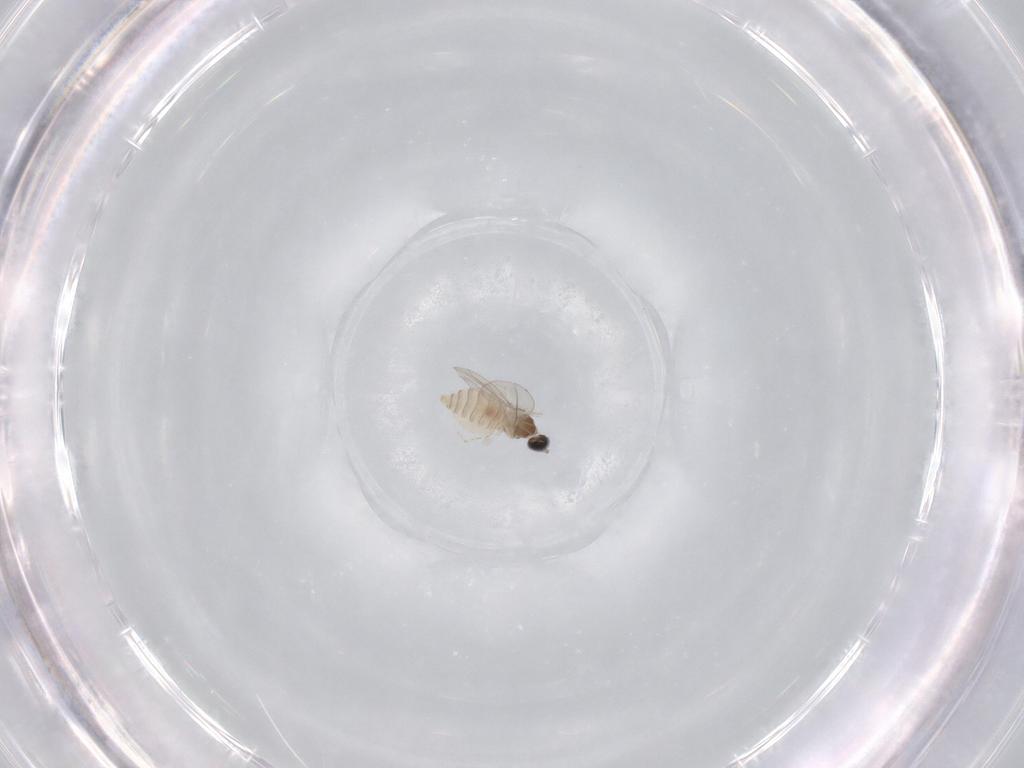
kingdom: Animalia
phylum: Arthropoda
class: Insecta
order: Diptera
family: Cecidomyiidae
